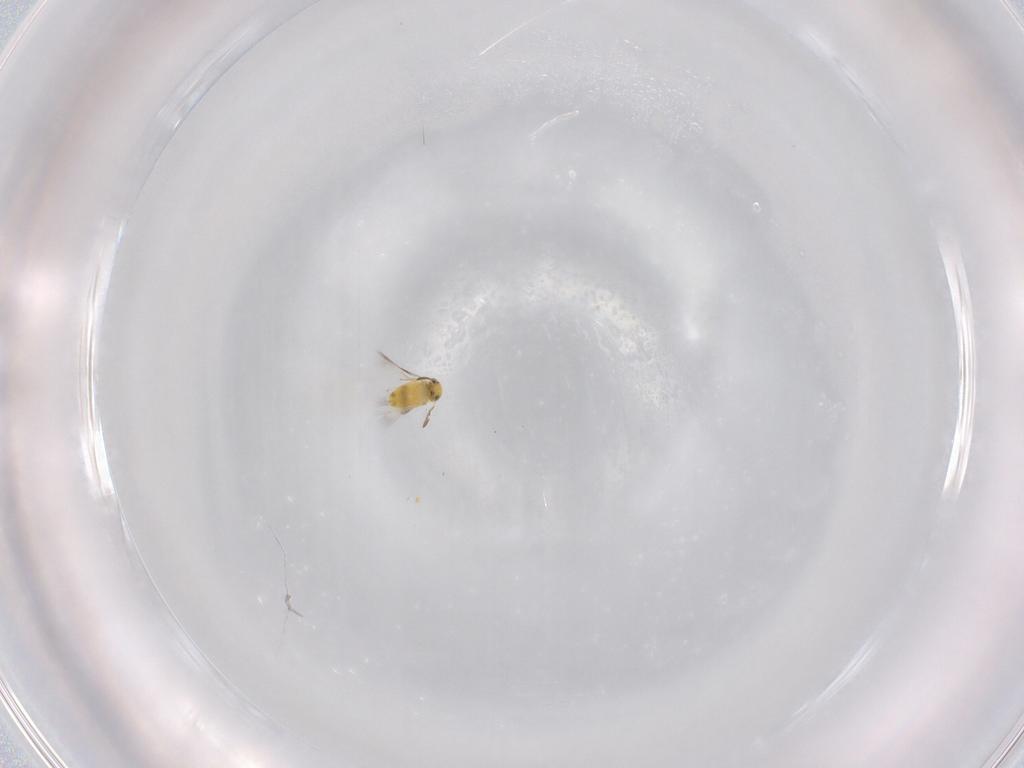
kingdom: Animalia
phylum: Arthropoda
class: Insecta
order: Hymenoptera
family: Signiphoridae
